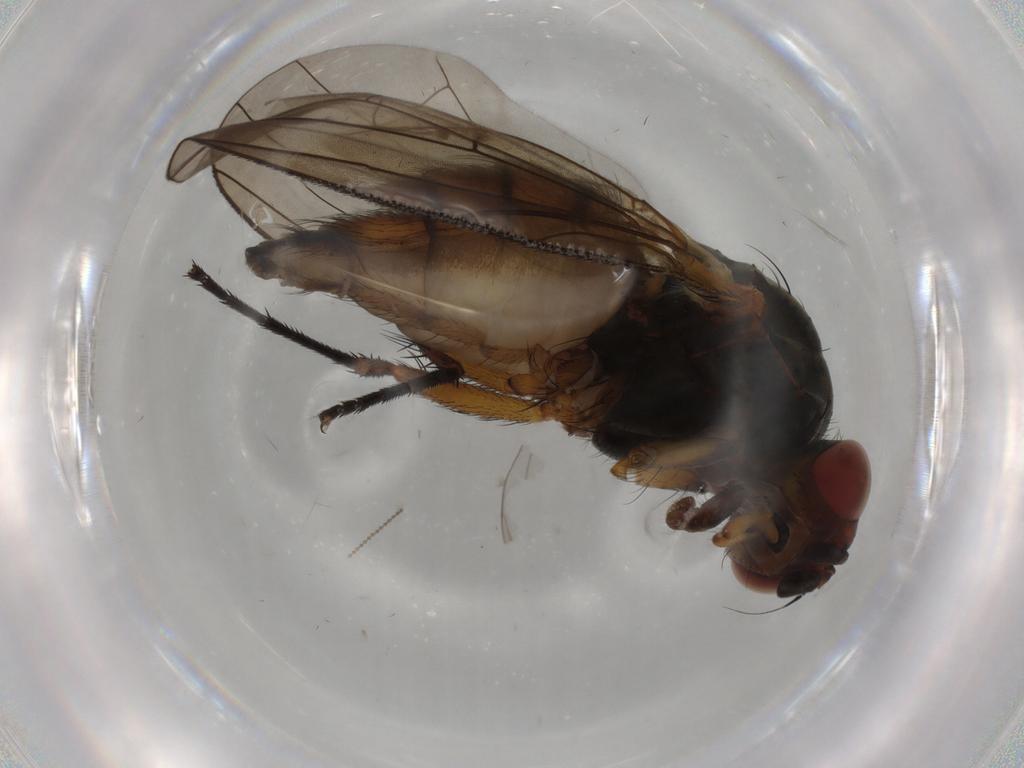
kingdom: Animalia
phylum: Arthropoda
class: Insecta
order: Diptera
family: Anthomyiidae
